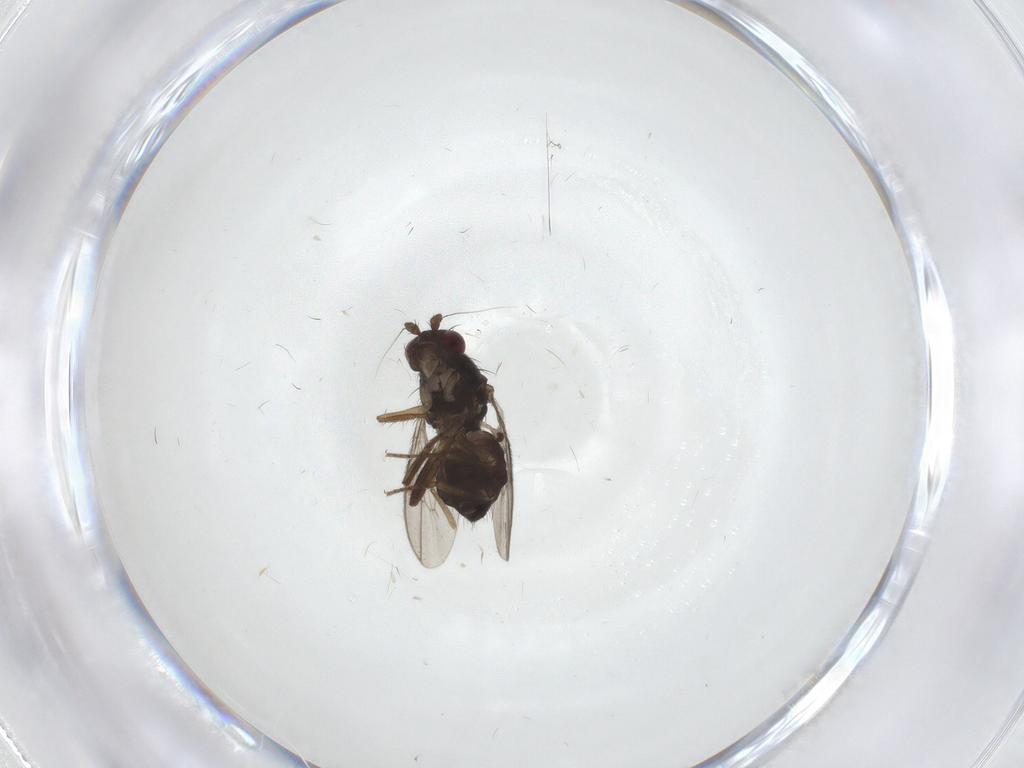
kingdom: Animalia
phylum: Arthropoda
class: Insecta
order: Diptera
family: Sphaeroceridae
